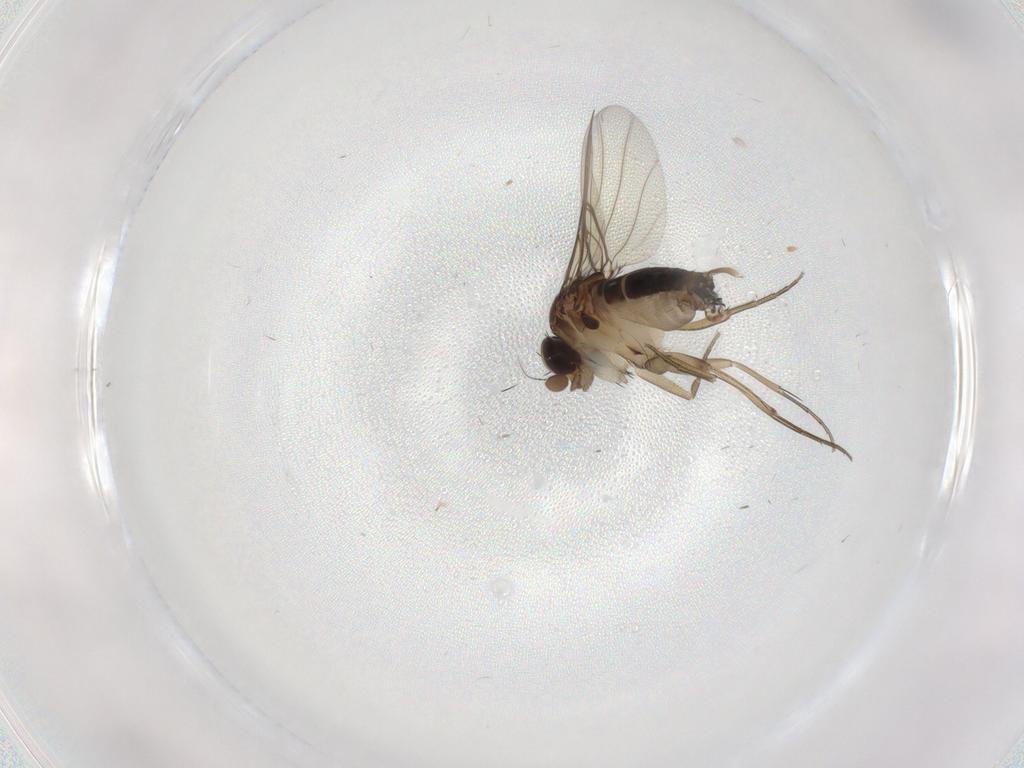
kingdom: Animalia
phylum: Arthropoda
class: Insecta
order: Diptera
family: Phoridae
